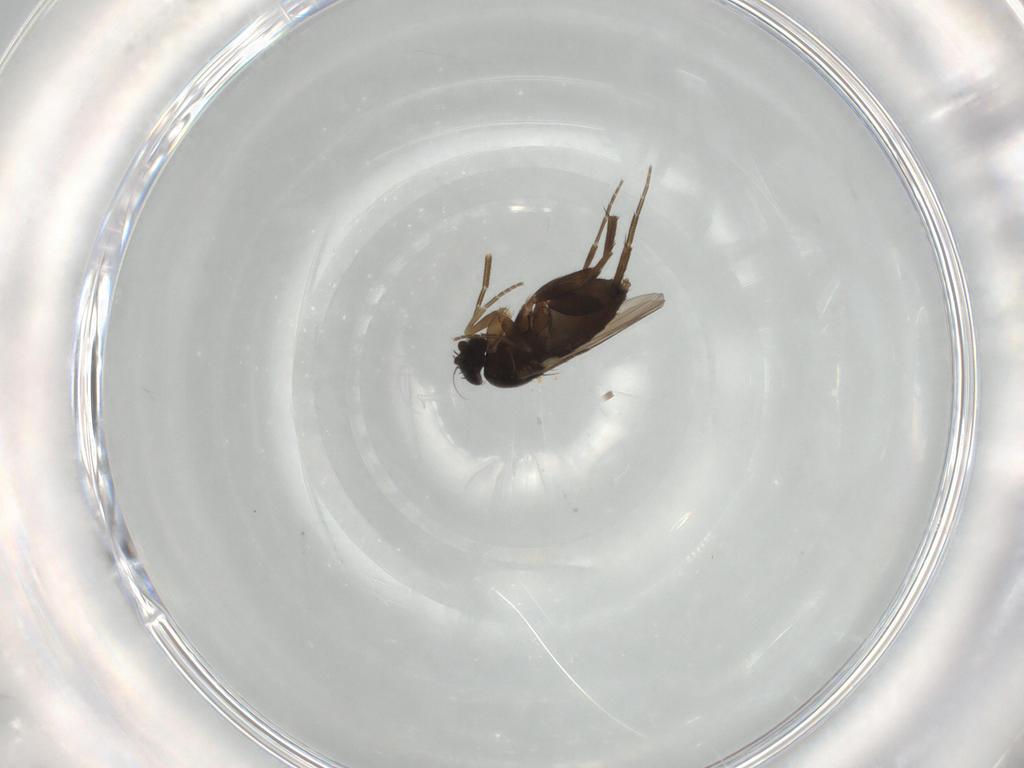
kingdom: Animalia
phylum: Arthropoda
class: Insecta
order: Diptera
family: Phoridae
